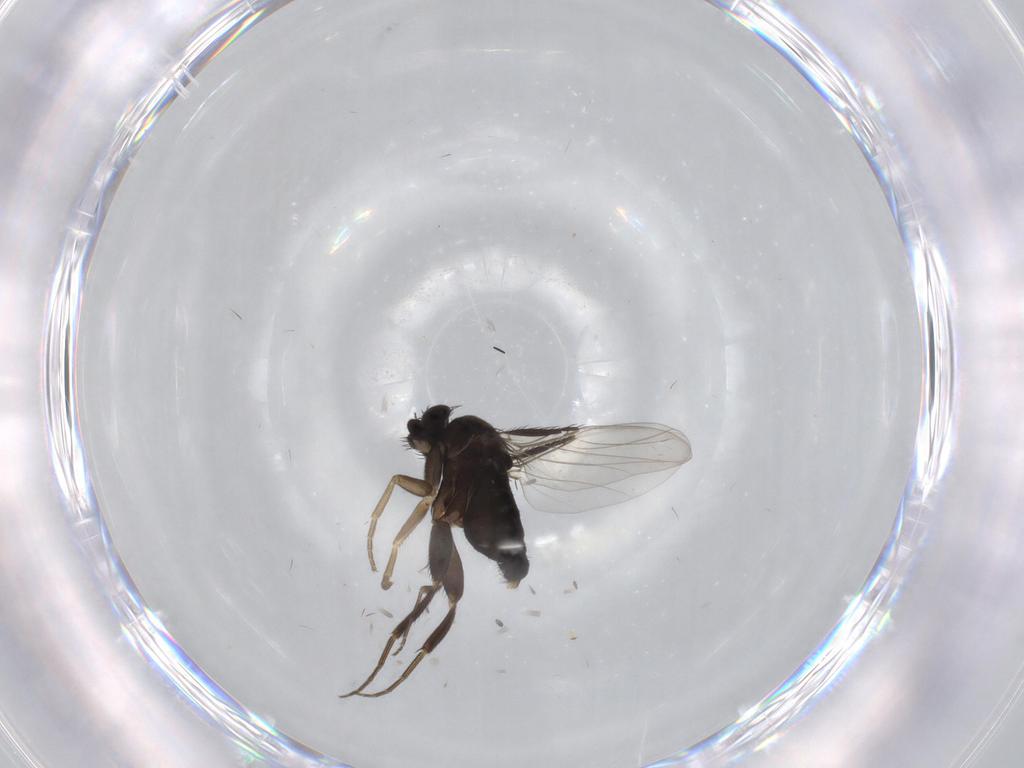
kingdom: Animalia
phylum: Arthropoda
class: Insecta
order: Diptera
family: Phoridae
